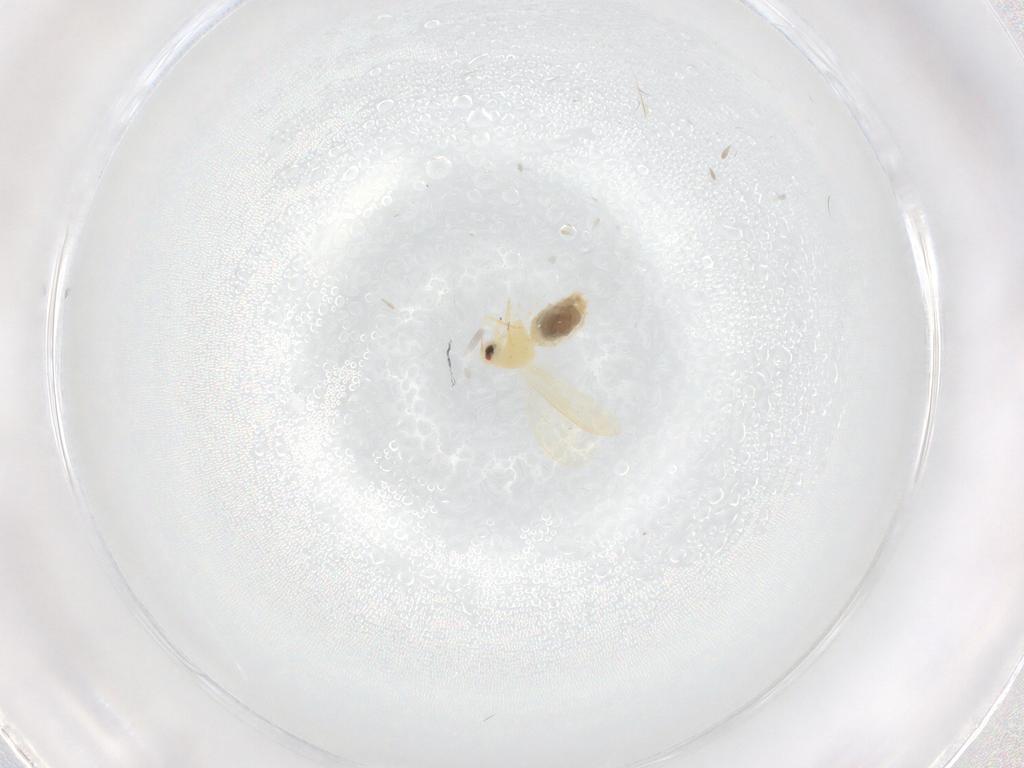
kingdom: Animalia
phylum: Arthropoda
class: Insecta
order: Hemiptera
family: Aleyrodidae
